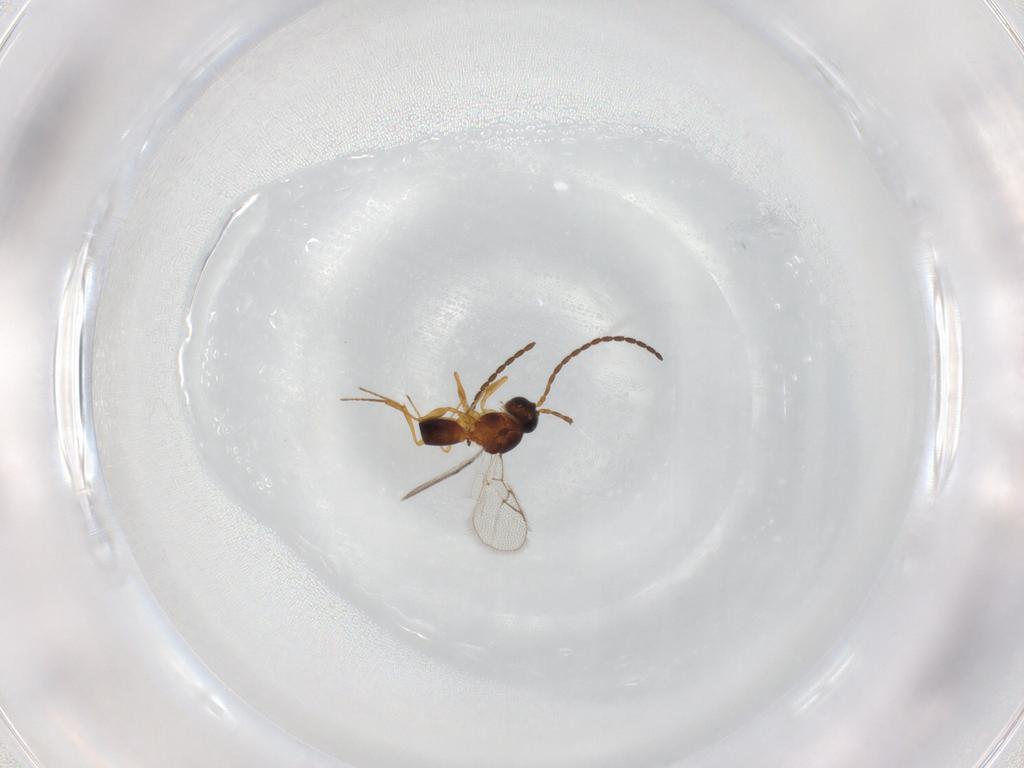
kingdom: Animalia
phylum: Arthropoda
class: Insecta
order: Hymenoptera
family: Figitidae
